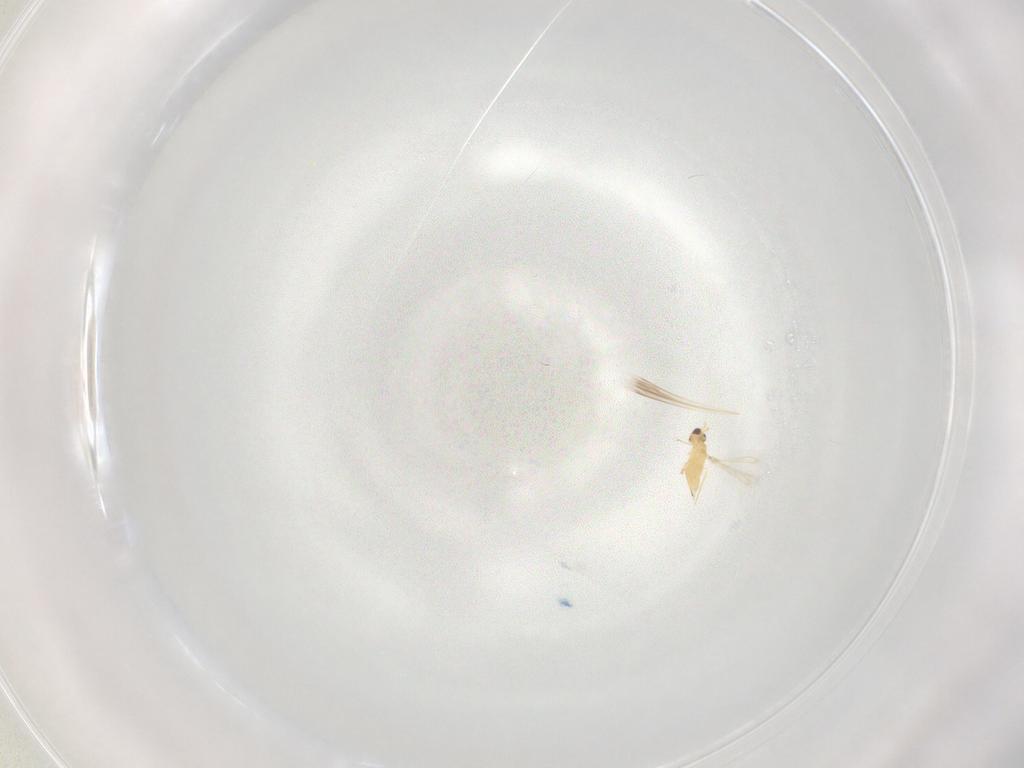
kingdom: Animalia
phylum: Arthropoda
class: Insecta
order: Hymenoptera
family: Mymaridae
